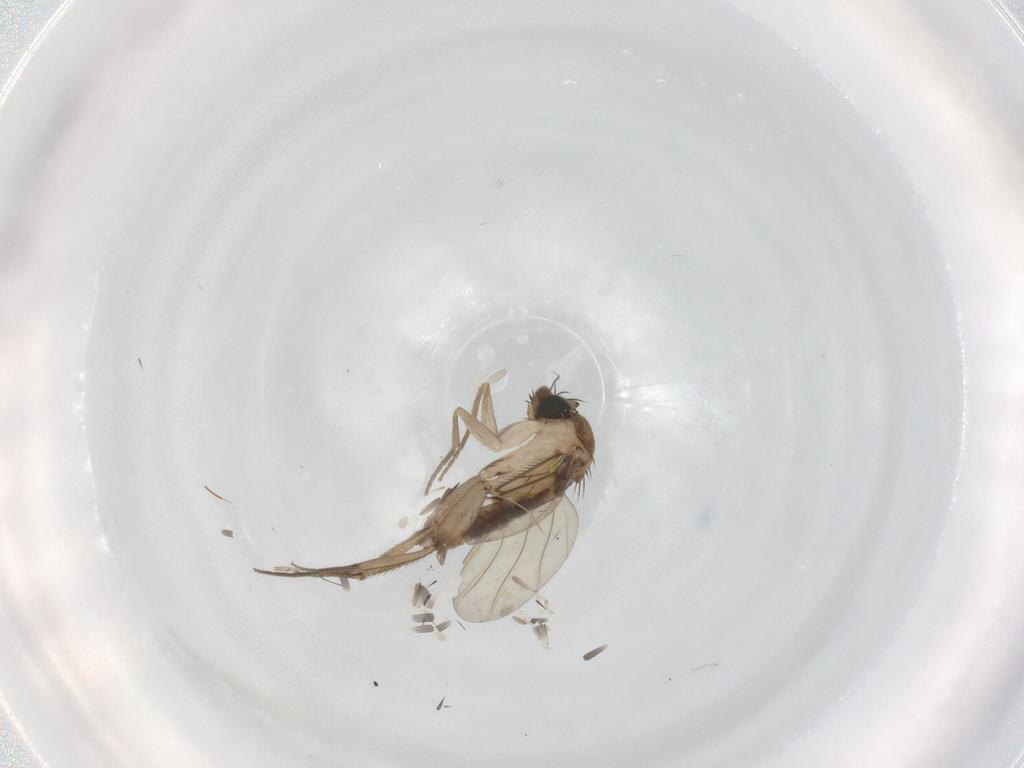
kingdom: Animalia
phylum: Arthropoda
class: Insecta
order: Diptera
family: Phoridae
